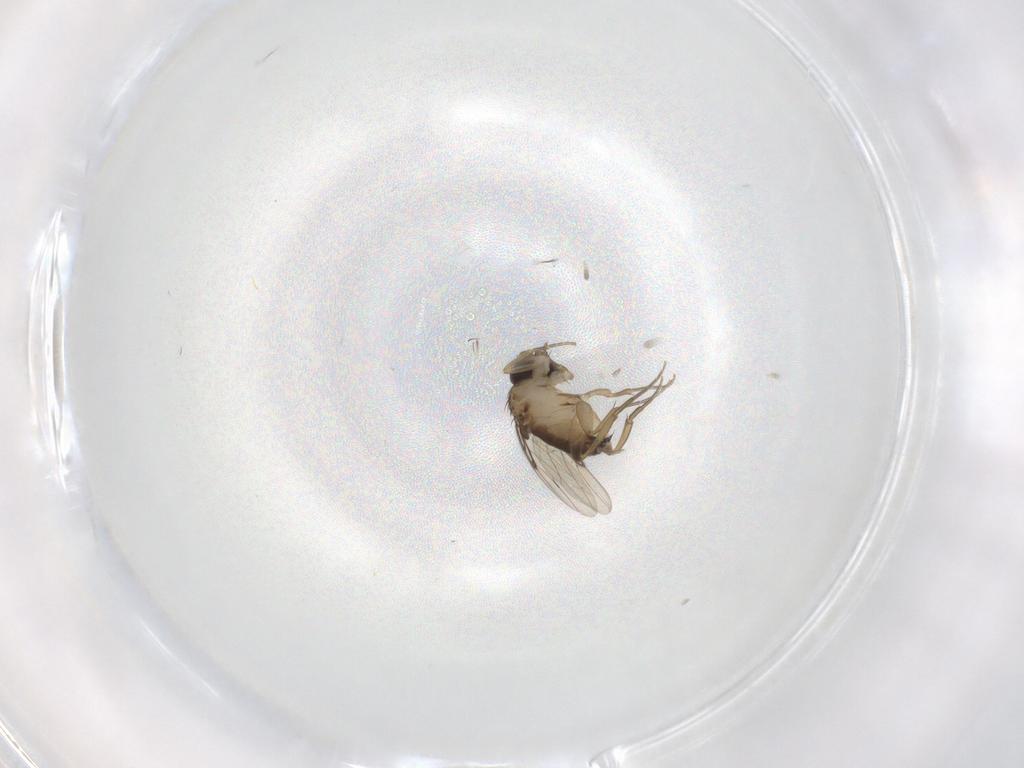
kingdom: Animalia
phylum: Arthropoda
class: Insecta
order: Diptera
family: Phoridae
